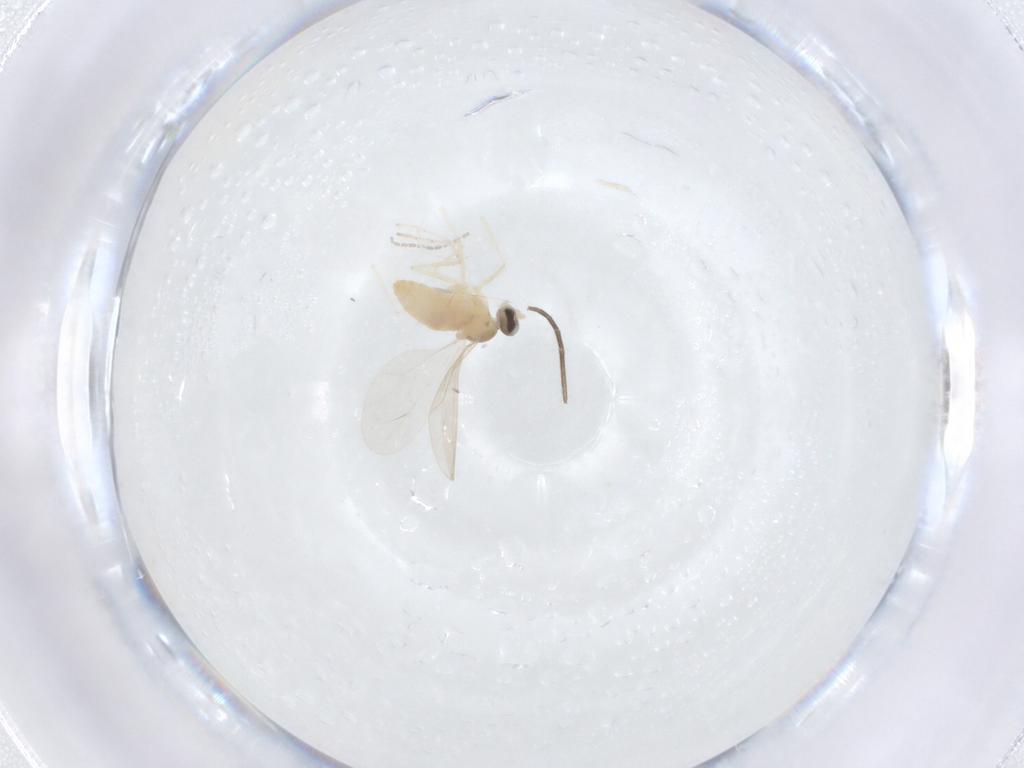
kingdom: Animalia
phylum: Arthropoda
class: Insecta
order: Diptera
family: Cecidomyiidae
